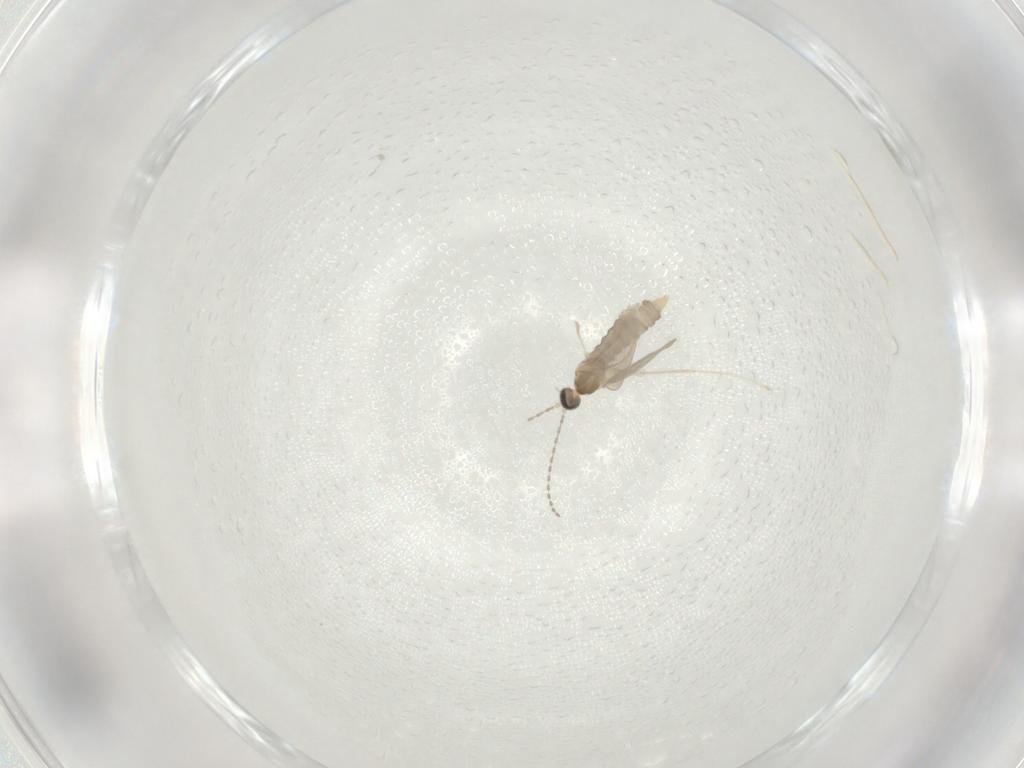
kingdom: Animalia
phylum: Arthropoda
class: Insecta
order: Diptera
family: Cecidomyiidae
